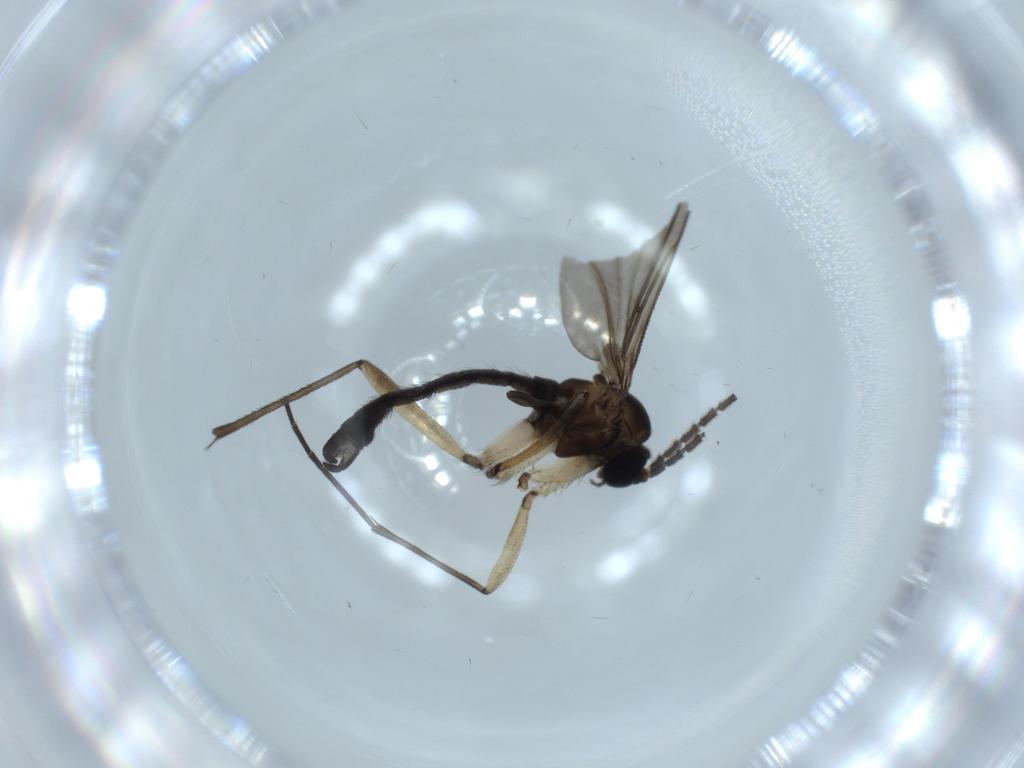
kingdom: Animalia
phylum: Arthropoda
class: Insecta
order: Diptera
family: Sciaridae
